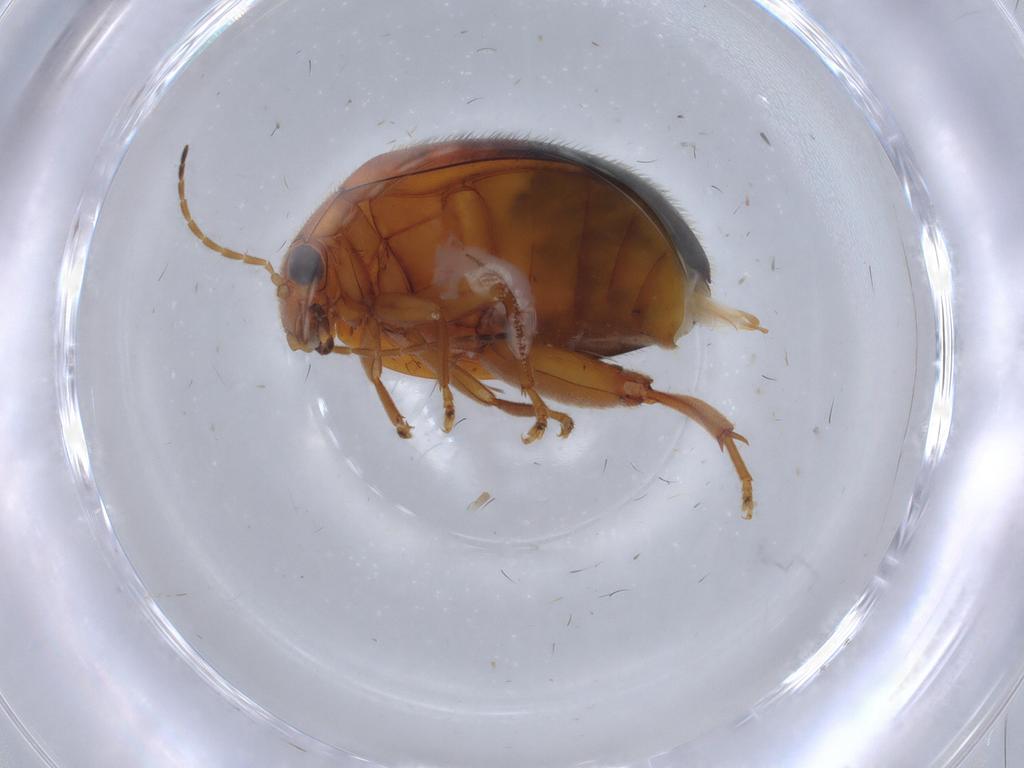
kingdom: Animalia
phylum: Arthropoda
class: Insecta
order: Coleoptera
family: Scirtidae
